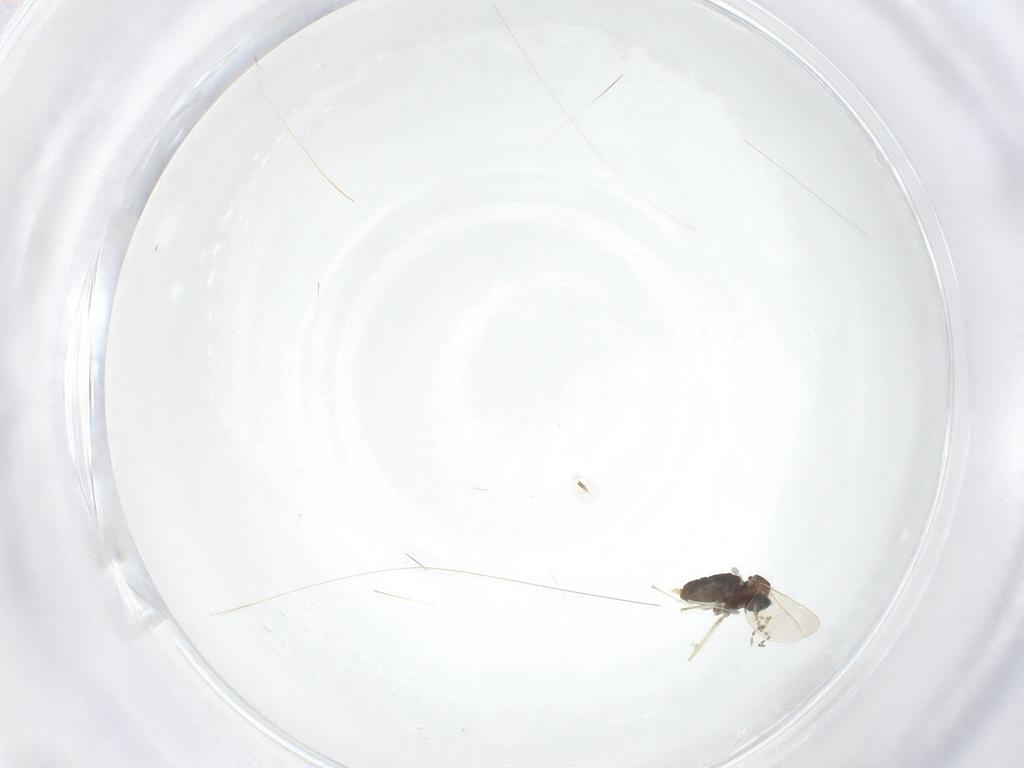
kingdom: Animalia
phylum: Arthropoda
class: Insecta
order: Diptera
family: Cecidomyiidae
